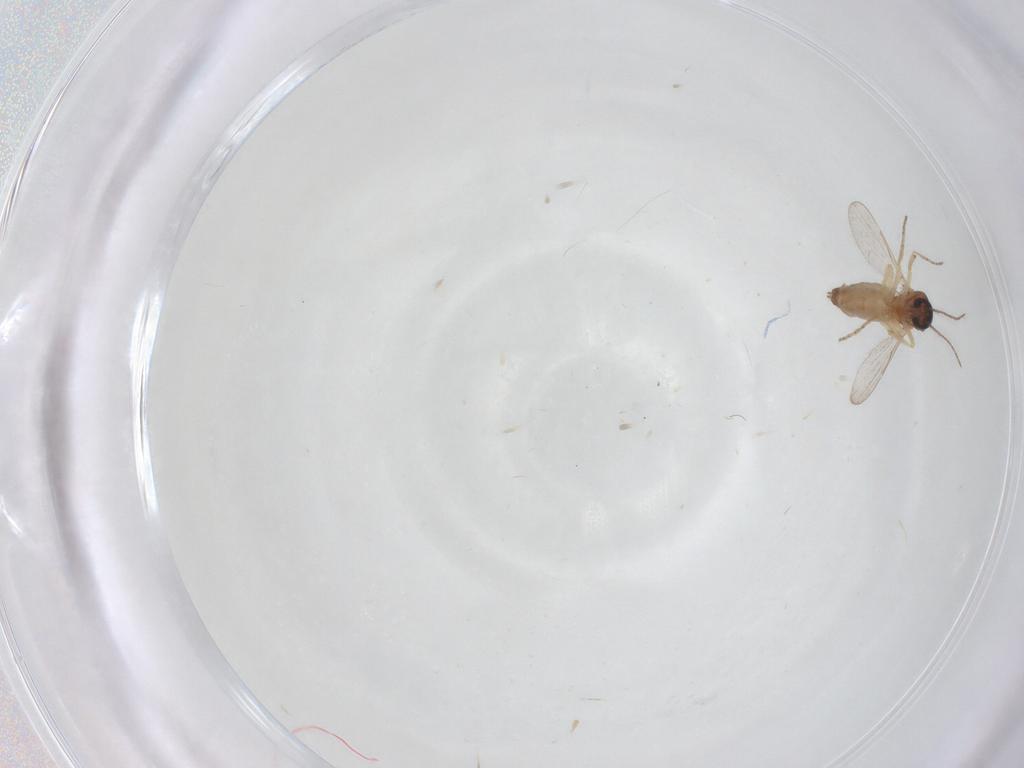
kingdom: Animalia
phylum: Arthropoda
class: Insecta
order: Diptera
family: Ceratopogonidae
